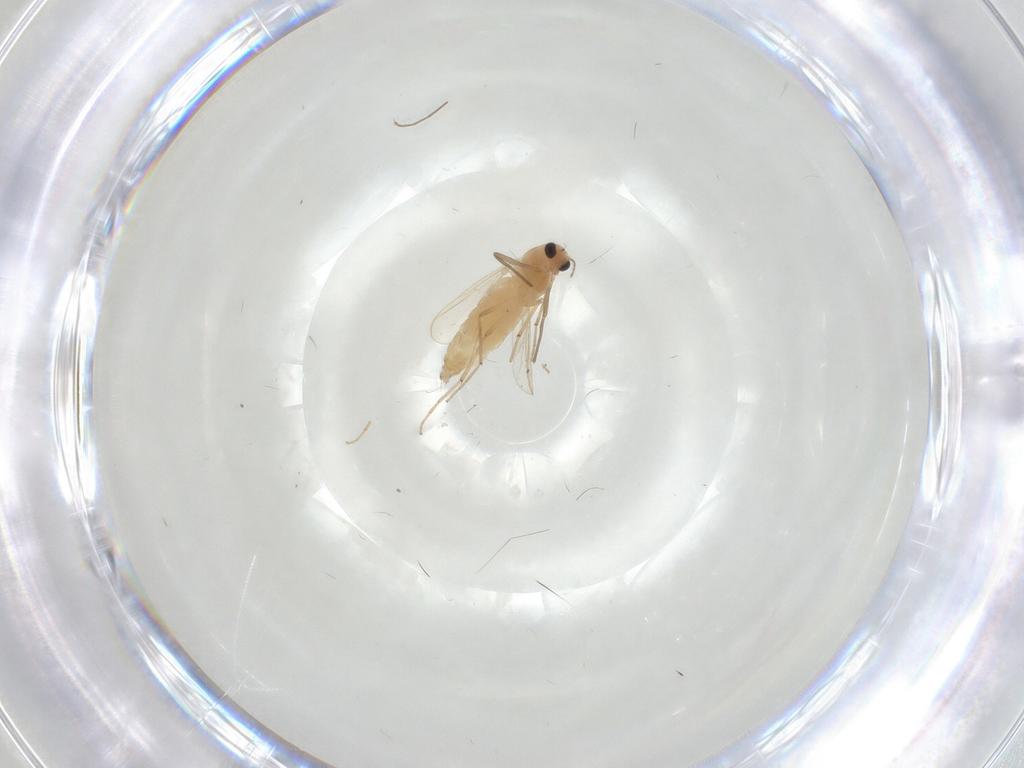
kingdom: Animalia
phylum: Arthropoda
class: Insecta
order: Diptera
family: Chironomidae
